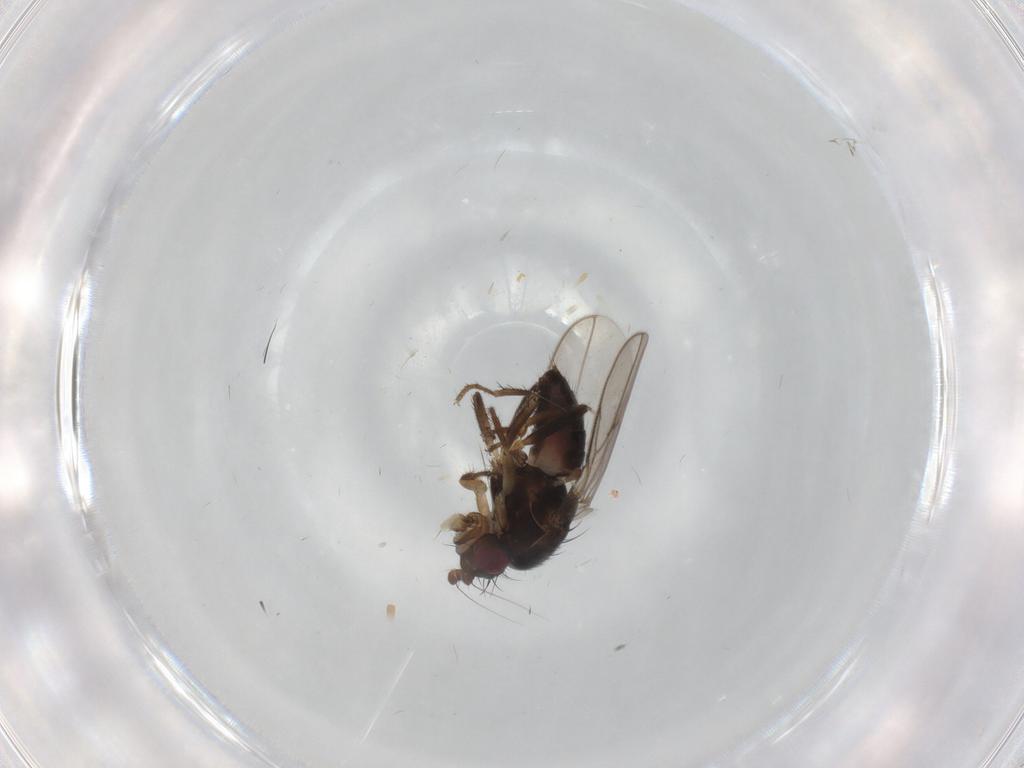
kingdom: Animalia
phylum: Arthropoda
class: Insecta
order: Diptera
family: Sphaeroceridae
